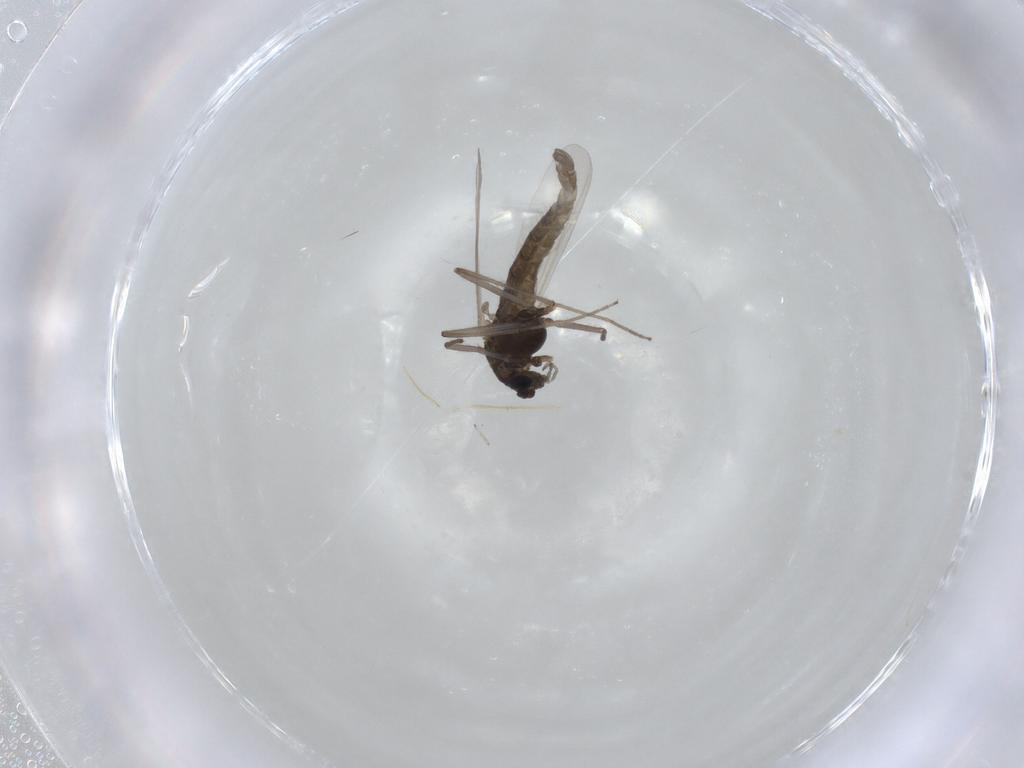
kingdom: Animalia
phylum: Arthropoda
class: Insecta
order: Diptera
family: Chironomidae
